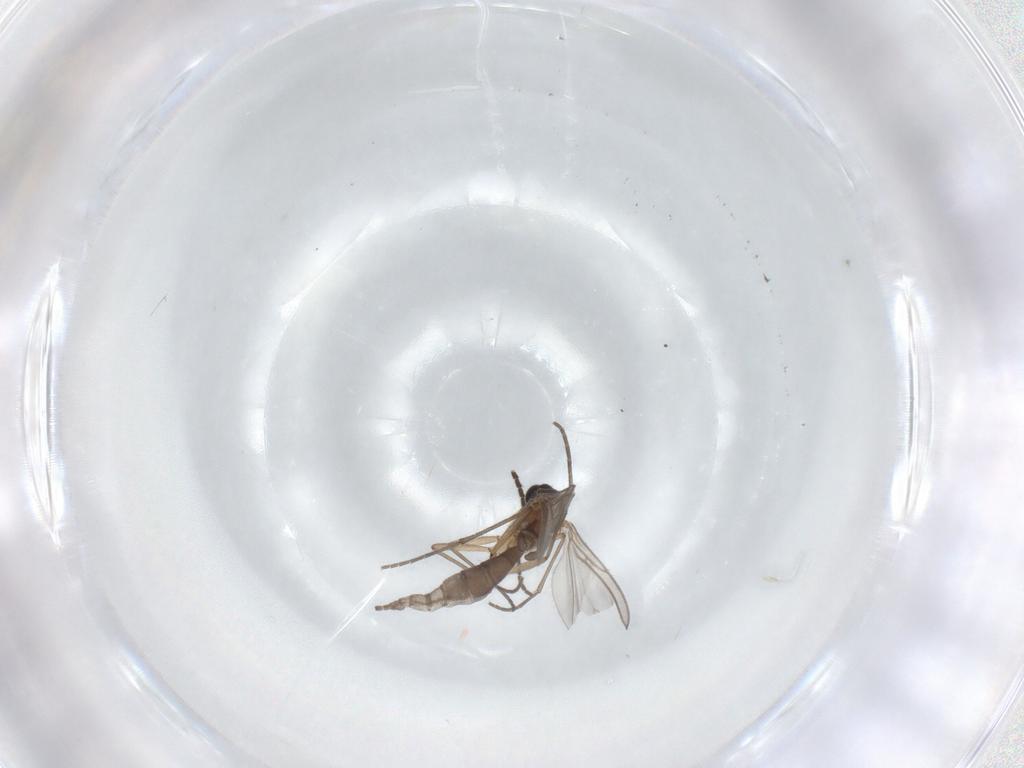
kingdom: Animalia
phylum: Arthropoda
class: Insecta
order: Diptera
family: Sciaridae
